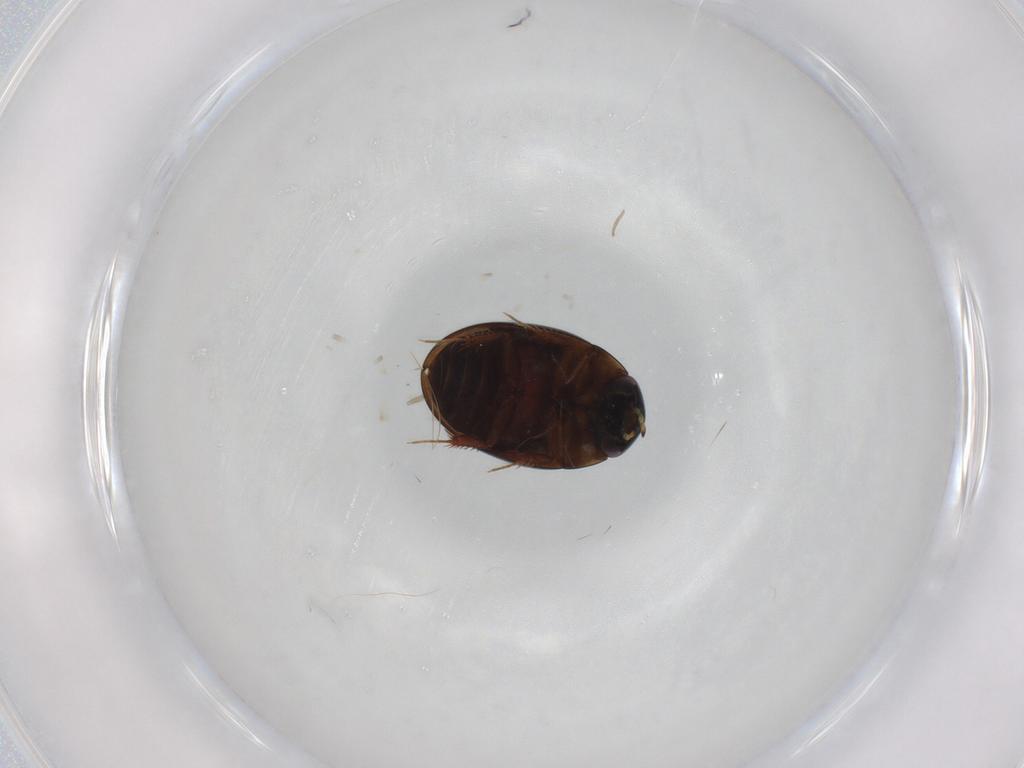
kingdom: Animalia
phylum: Arthropoda
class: Insecta
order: Coleoptera
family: Hydrophilidae
